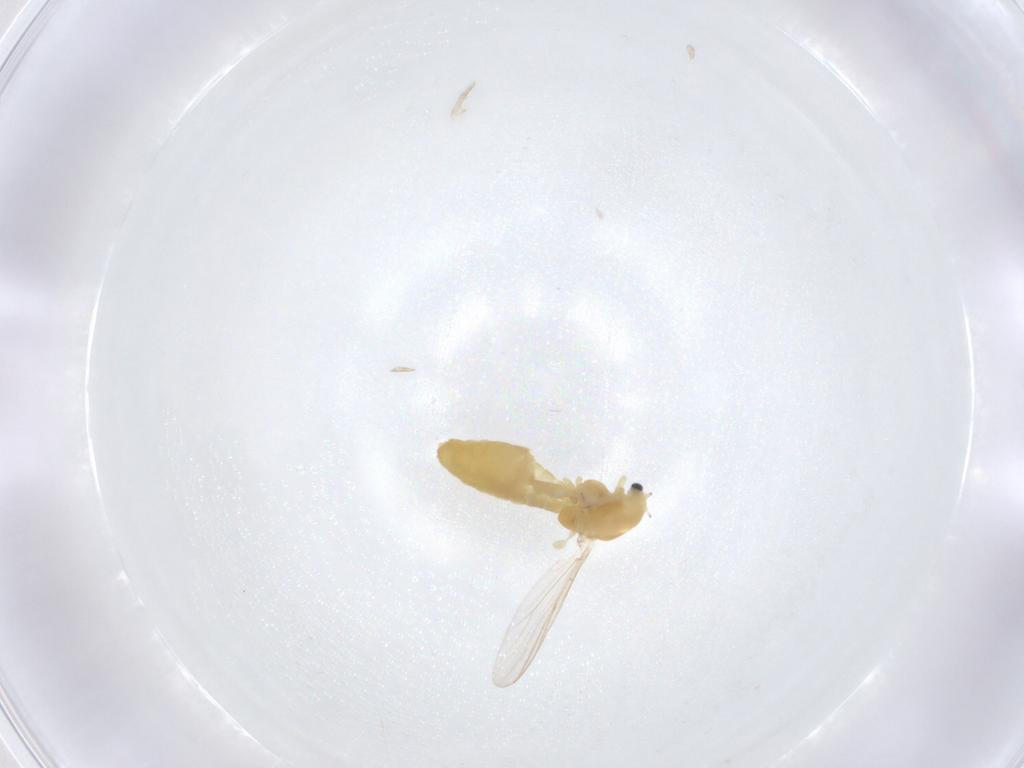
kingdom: Animalia
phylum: Arthropoda
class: Insecta
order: Diptera
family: Chironomidae
